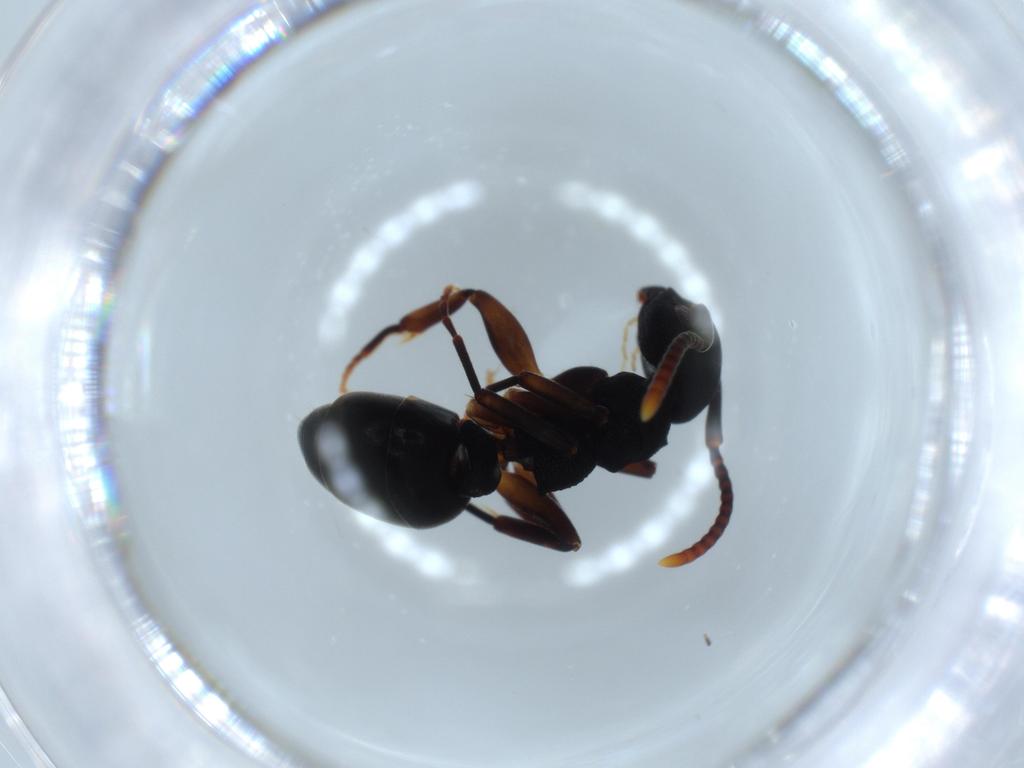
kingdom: Animalia
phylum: Arthropoda
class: Insecta
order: Hymenoptera
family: Formicidae
